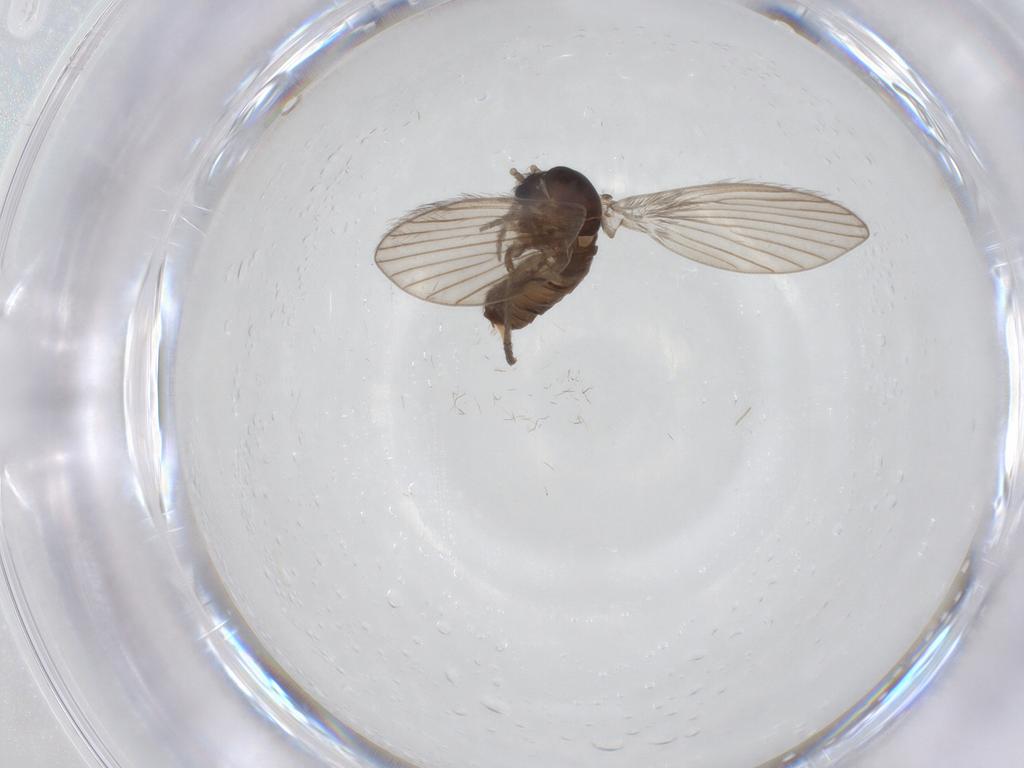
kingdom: Animalia
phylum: Arthropoda
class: Insecta
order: Diptera
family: Psychodidae
